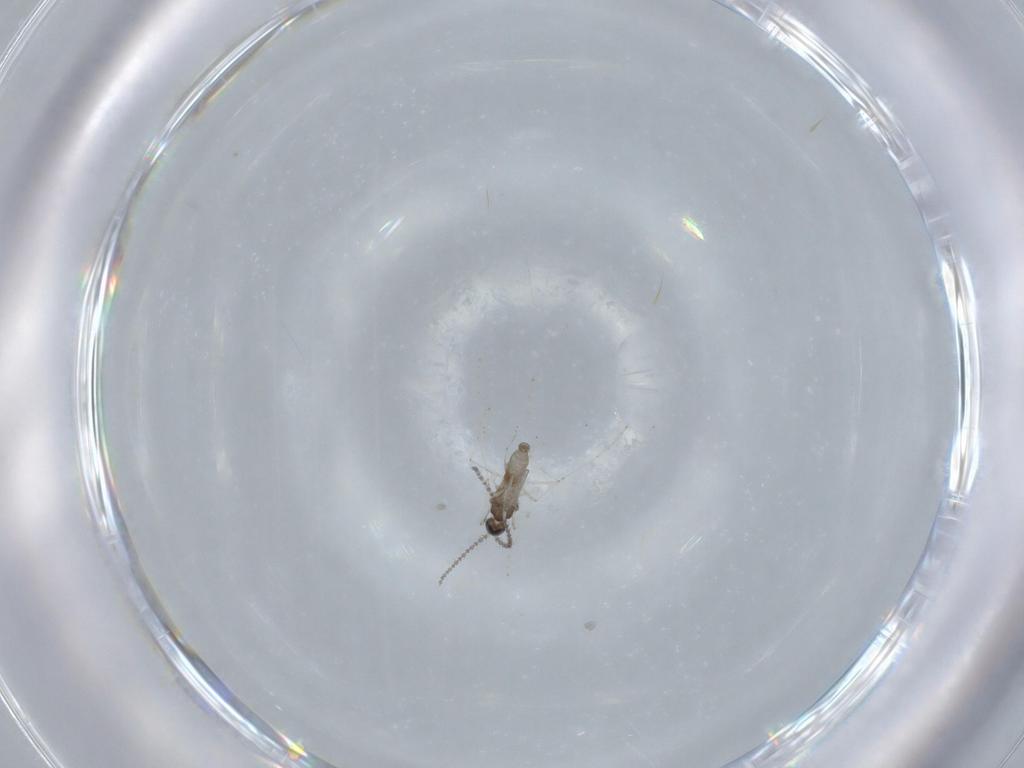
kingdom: Animalia
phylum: Arthropoda
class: Insecta
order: Diptera
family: Cecidomyiidae
